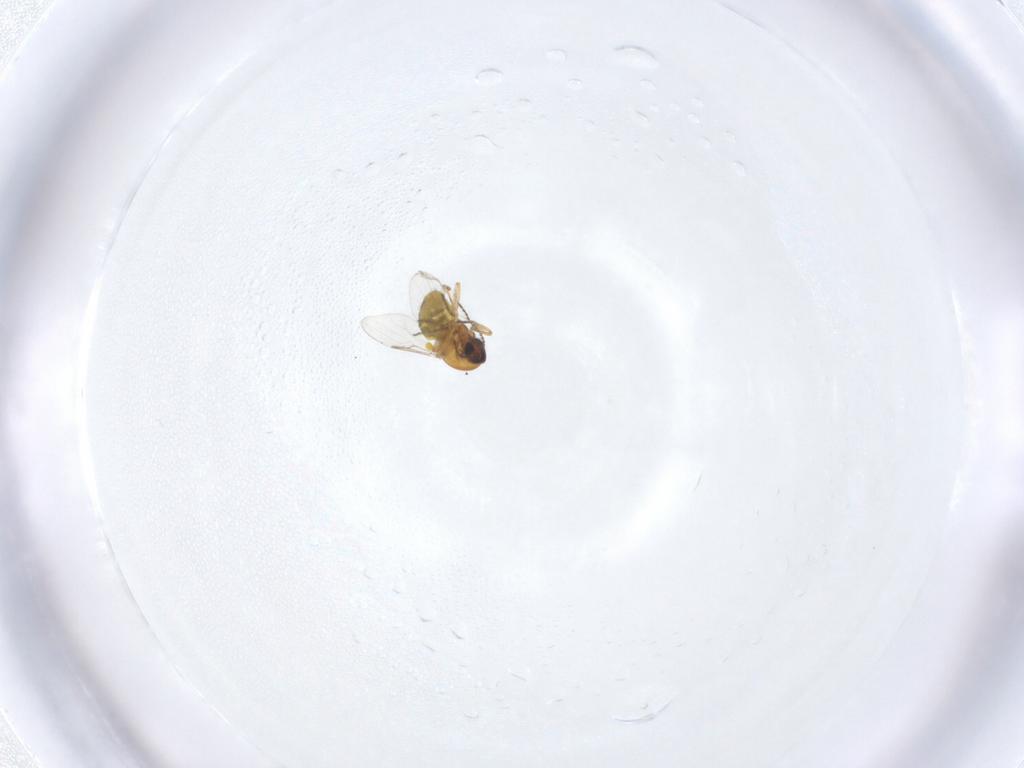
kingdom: Animalia
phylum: Arthropoda
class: Insecta
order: Diptera
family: Ceratopogonidae
